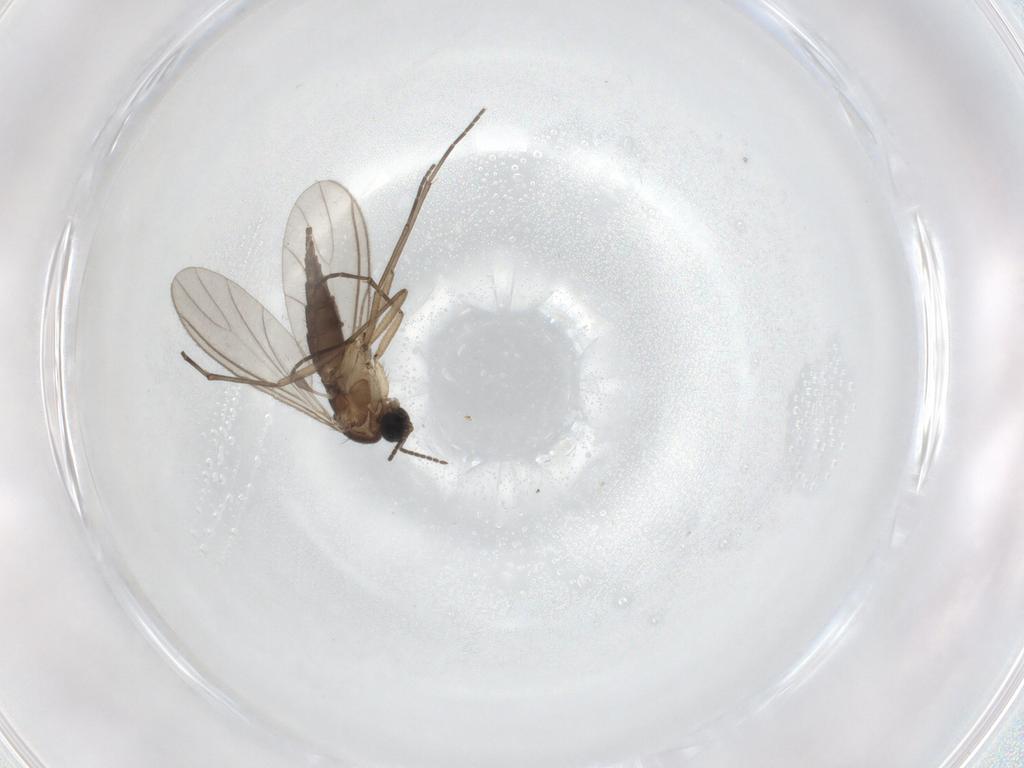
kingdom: Animalia
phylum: Arthropoda
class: Insecta
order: Diptera
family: Sciaridae
